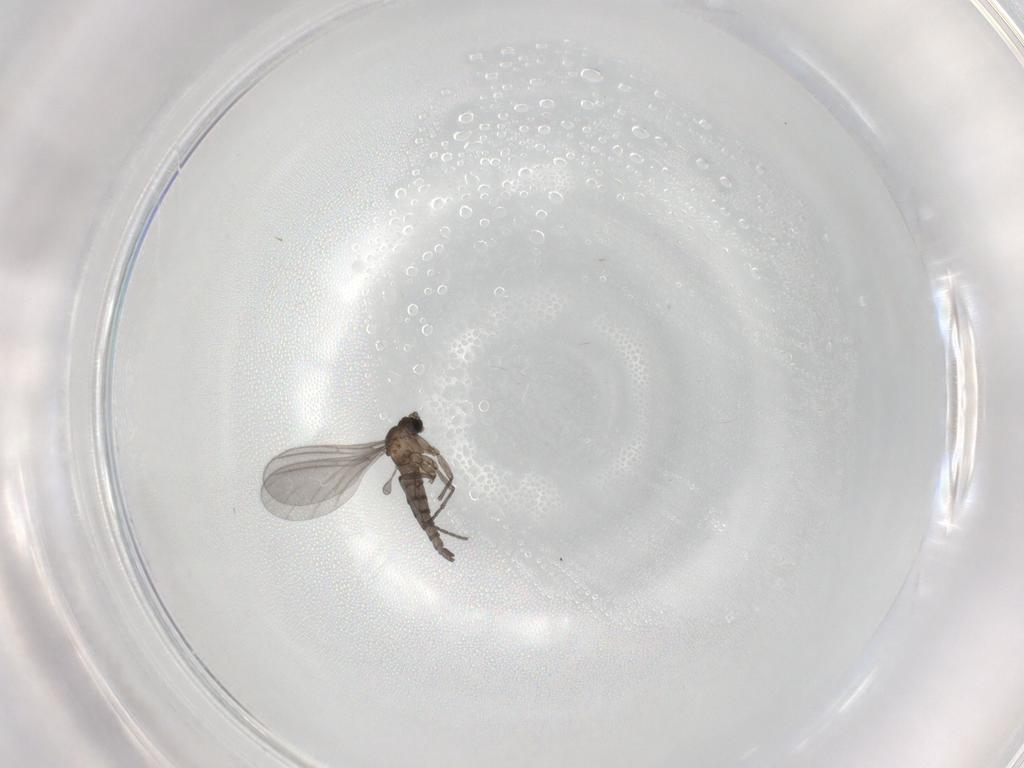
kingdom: Animalia
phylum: Arthropoda
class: Insecta
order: Diptera
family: Sciaridae
